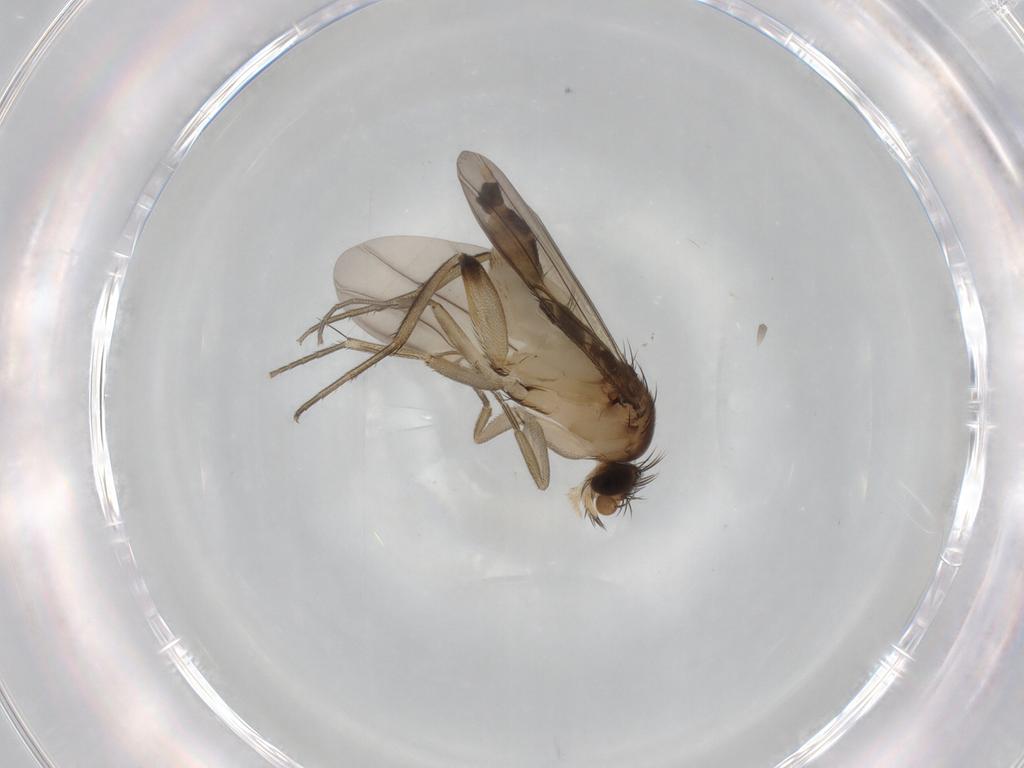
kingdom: Animalia
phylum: Arthropoda
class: Insecta
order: Diptera
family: Phoridae
